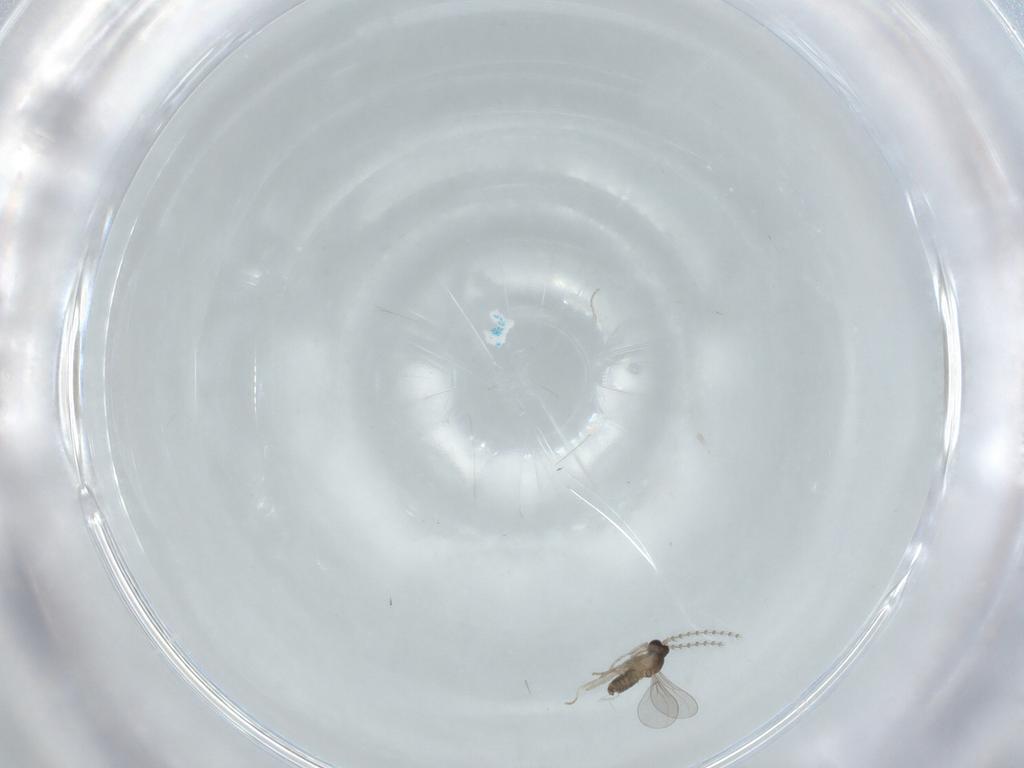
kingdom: Animalia
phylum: Arthropoda
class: Insecta
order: Diptera
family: Cecidomyiidae
